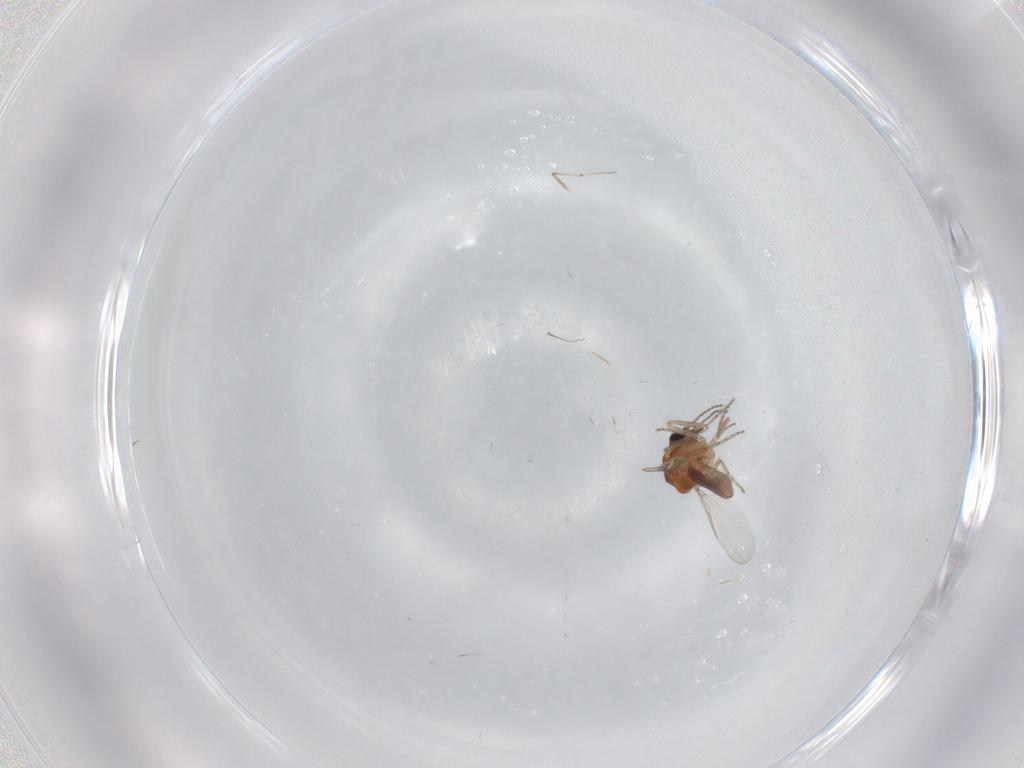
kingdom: Animalia
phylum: Arthropoda
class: Insecta
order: Diptera
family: Ceratopogonidae
